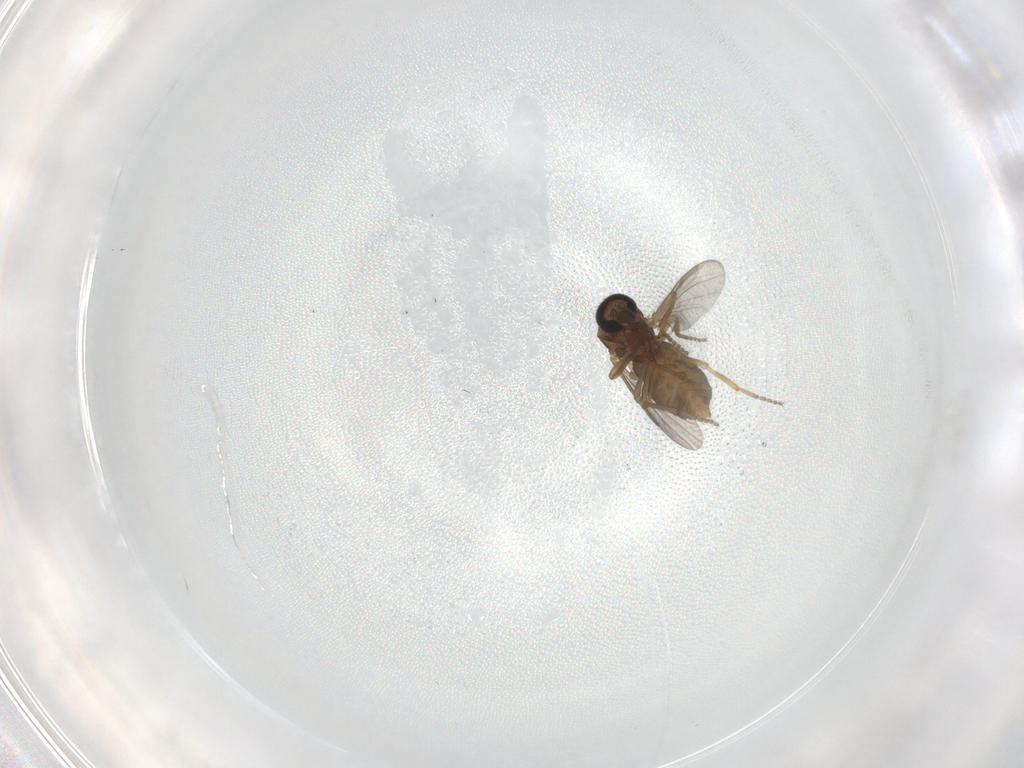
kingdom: Animalia
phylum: Arthropoda
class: Insecta
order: Diptera
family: Ceratopogonidae
